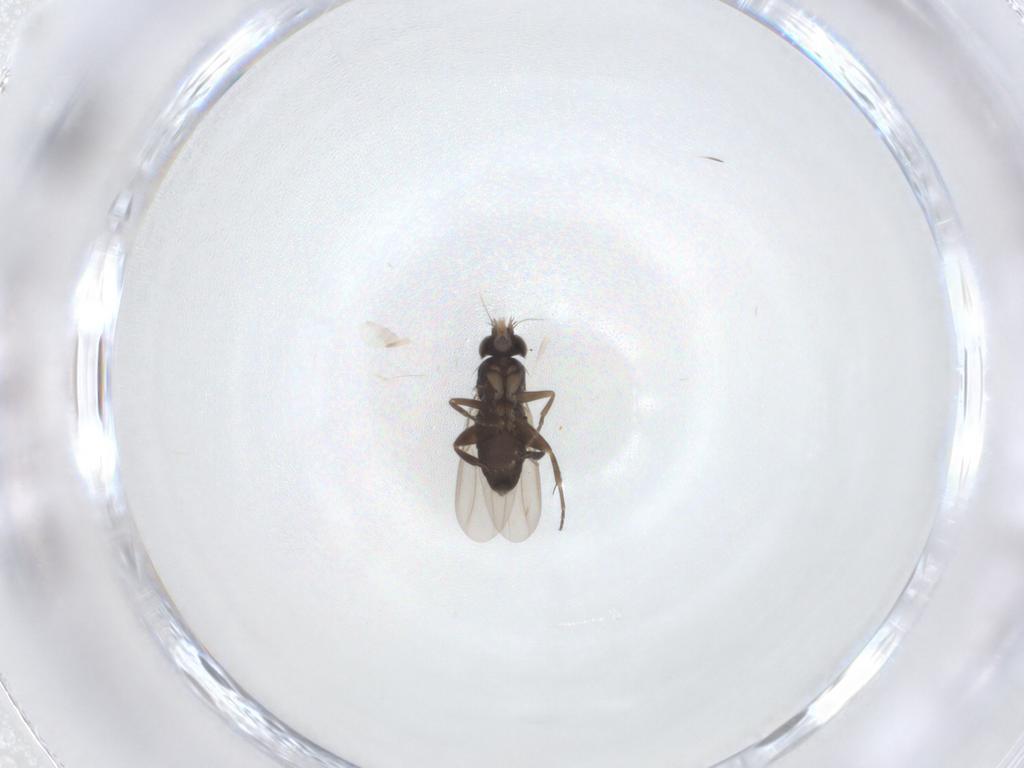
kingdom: Animalia
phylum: Arthropoda
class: Insecta
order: Diptera
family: Phoridae
